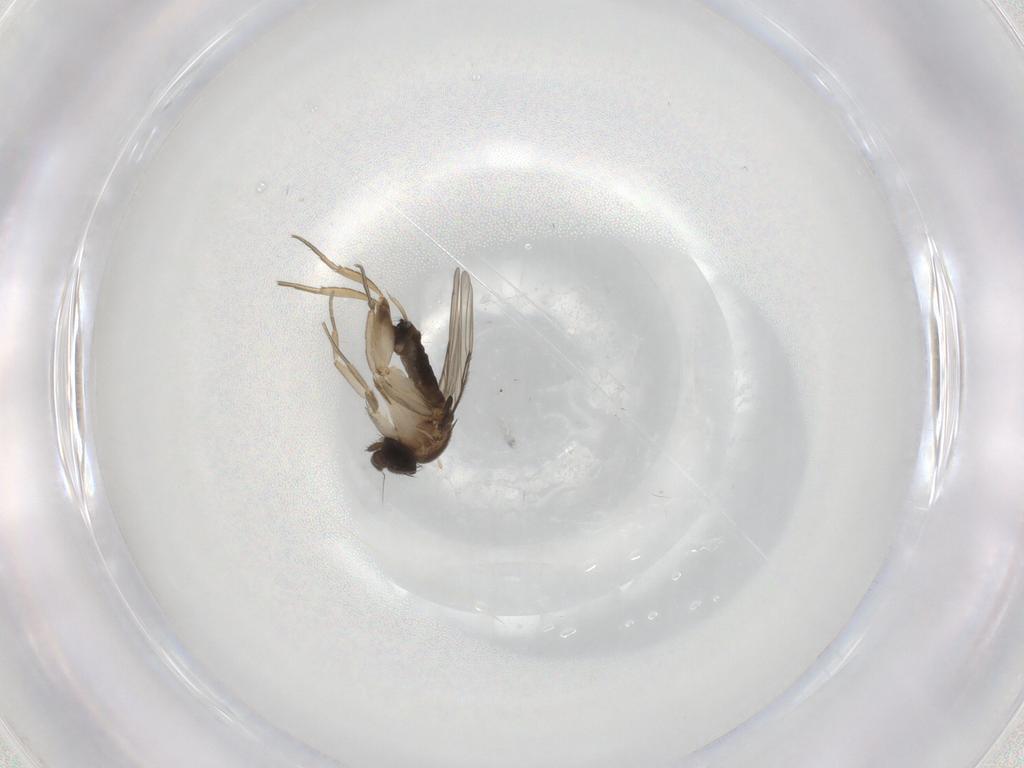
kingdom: Animalia
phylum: Arthropoda
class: Insecta
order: Diptera
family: Phoridae
